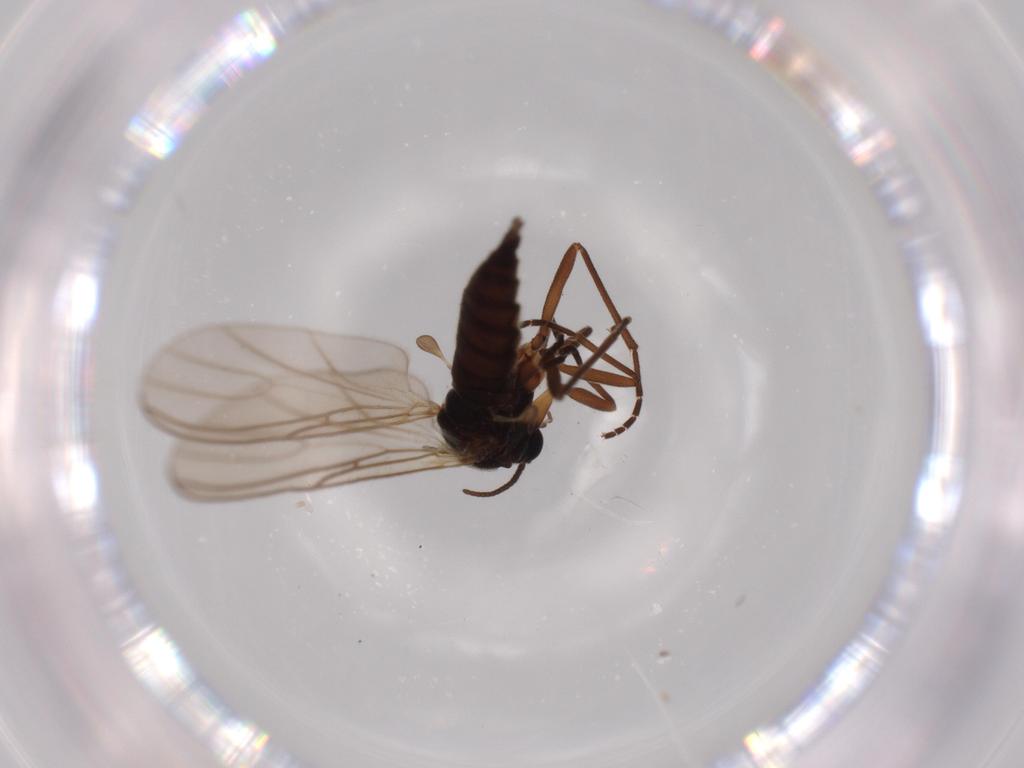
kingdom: Animalia
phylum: Arthropoda
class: Insecta
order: Diptera
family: Sciaridae
